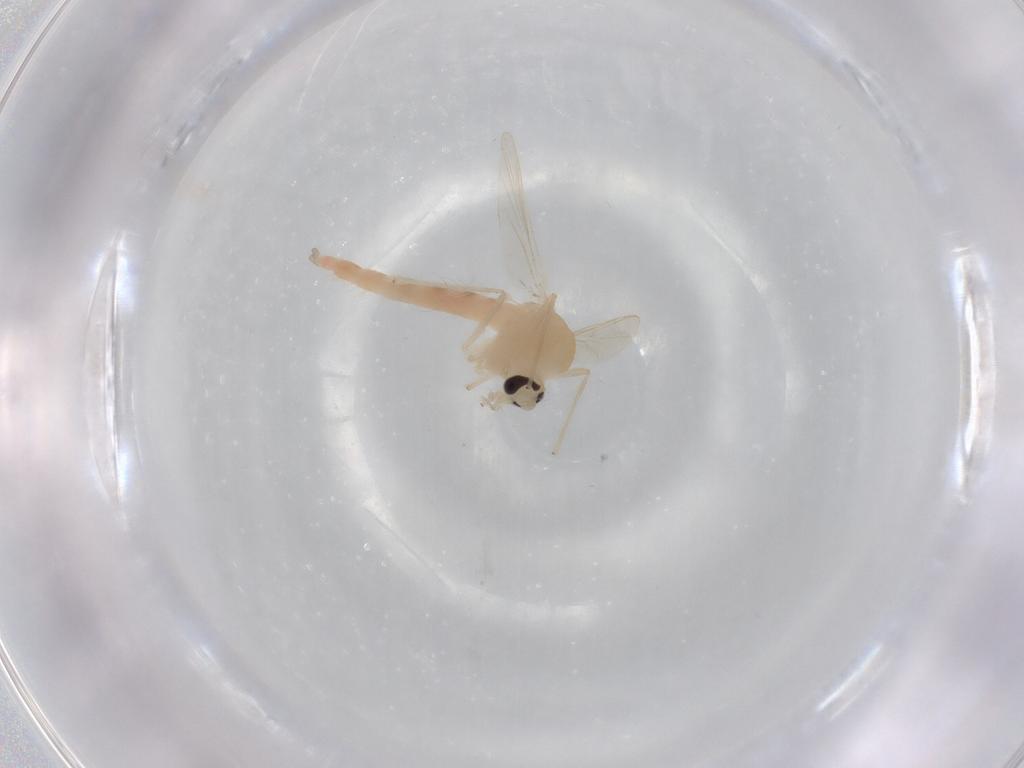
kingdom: Animalia
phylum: Arthropoda
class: Insecta
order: Diptera
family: Chironomidae
